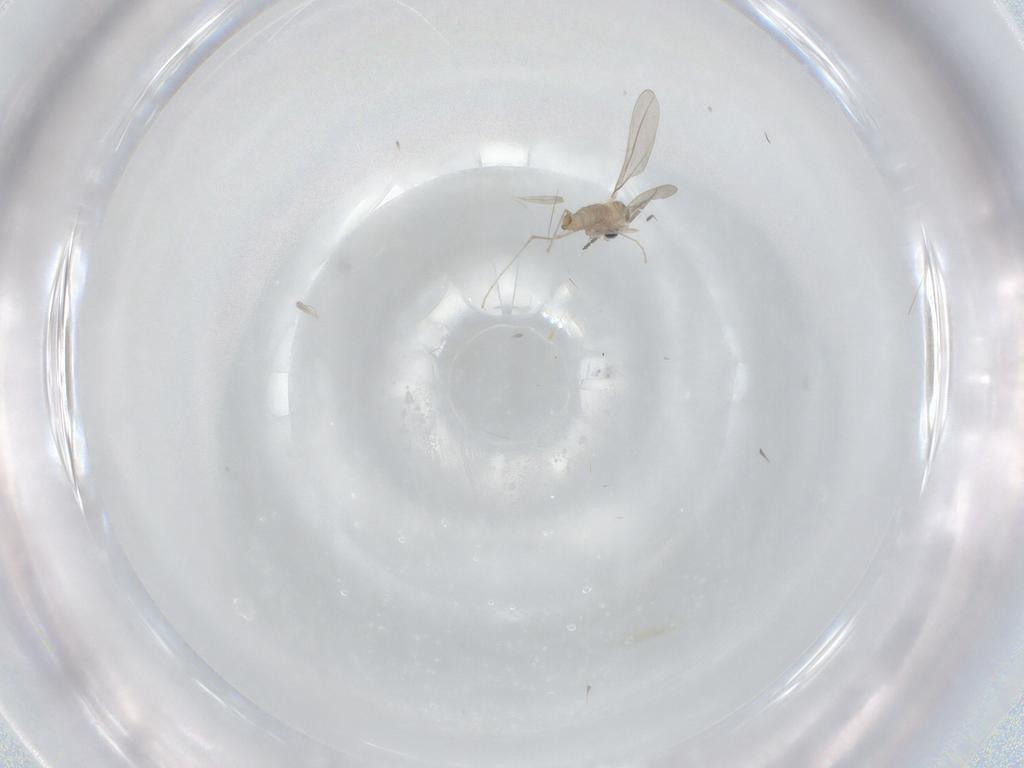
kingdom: Animalia
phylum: Arthropoda
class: Insecta
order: Diptera
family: Cecidomyiidae
